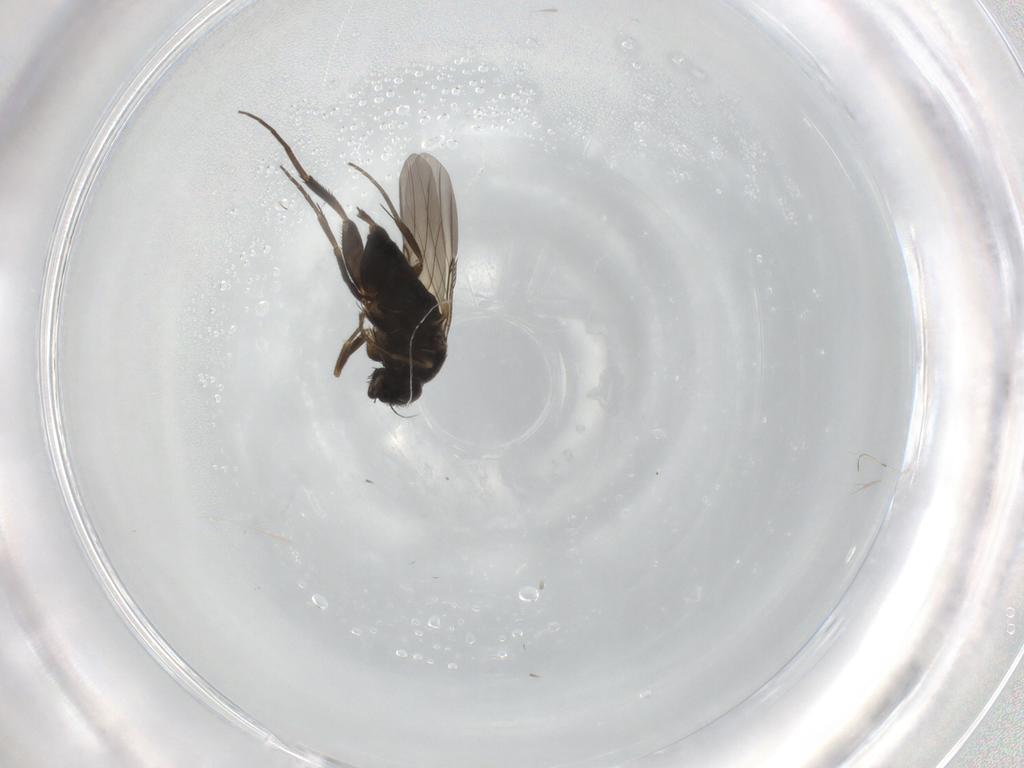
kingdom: Animalia
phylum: Arthropoda
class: Insecta
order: Diptera
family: Phoridae
